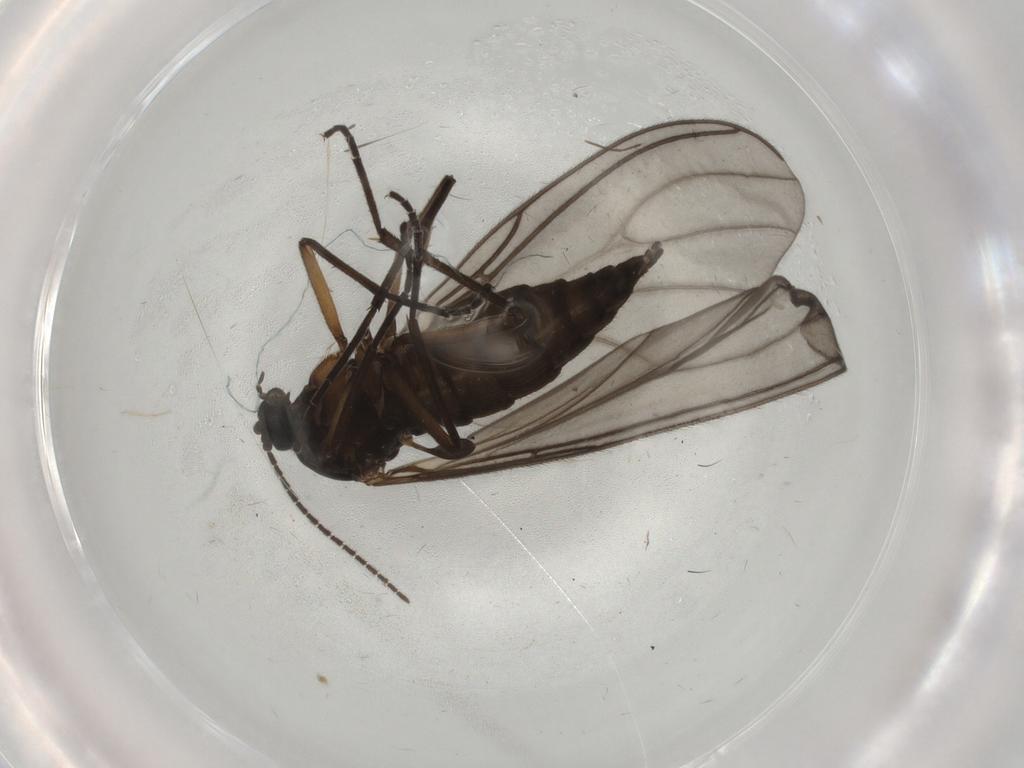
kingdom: Animalia
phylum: Arthropoda
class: Insecta
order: Diptera
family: Sciaridae
